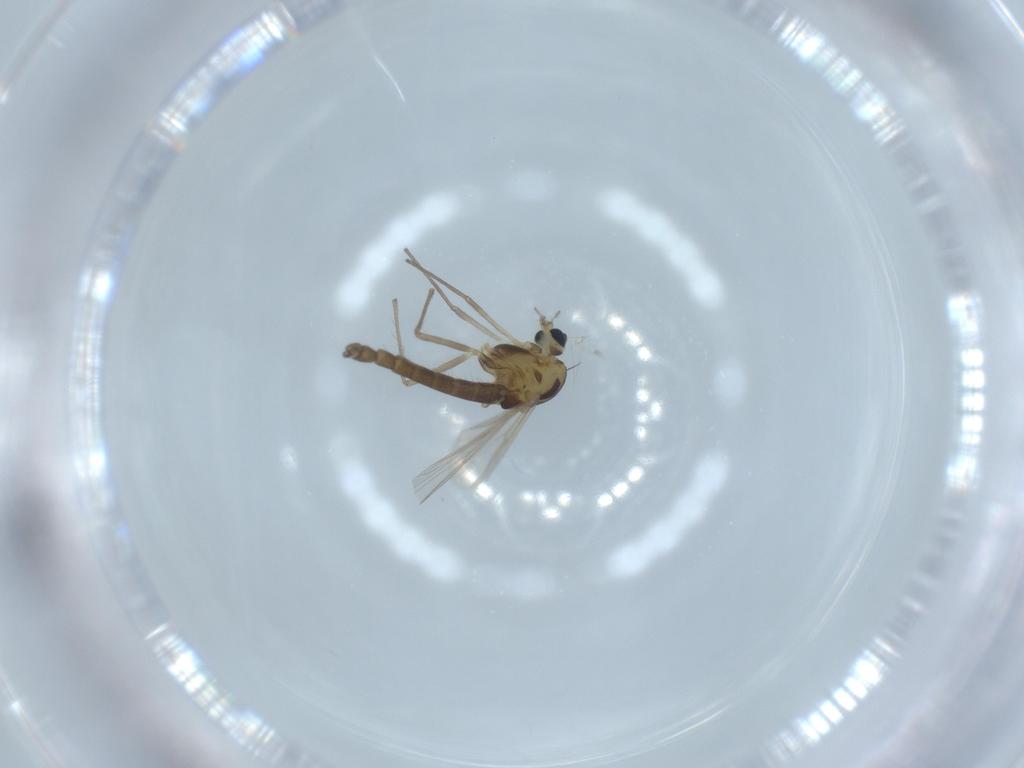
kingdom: Animalia
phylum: Arthropoda
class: Insecta
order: Diptera
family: Chironomidae
